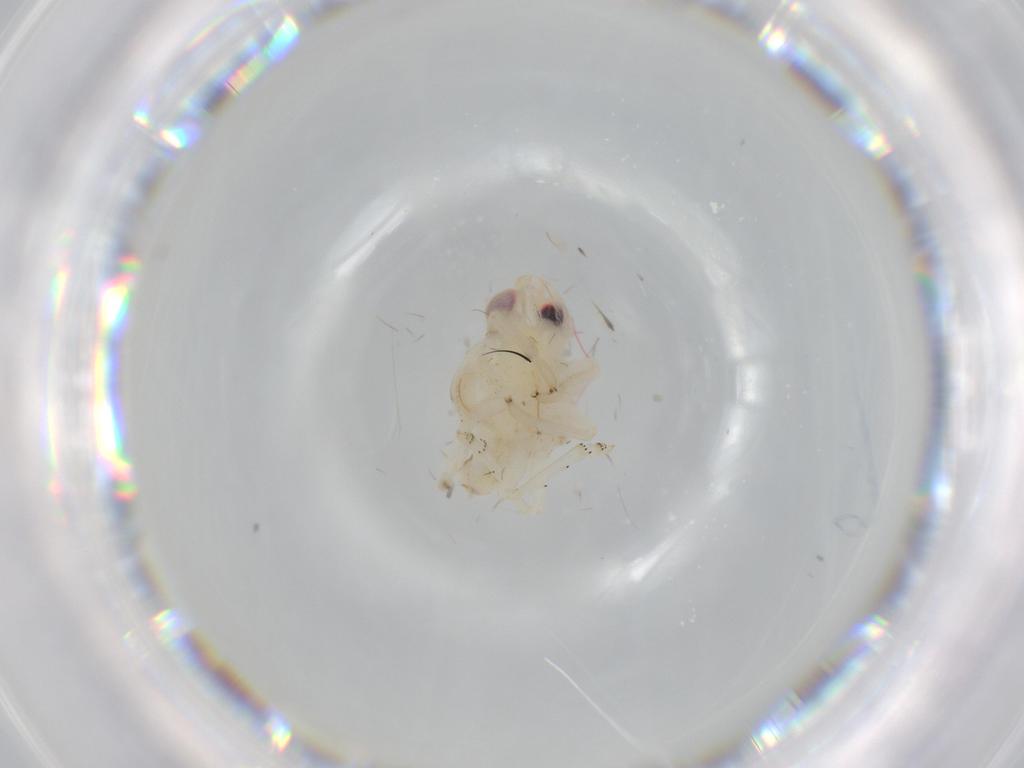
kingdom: Animalia
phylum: Arthropoda
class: Insecta
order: Hemiptera
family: Nogodinidae
